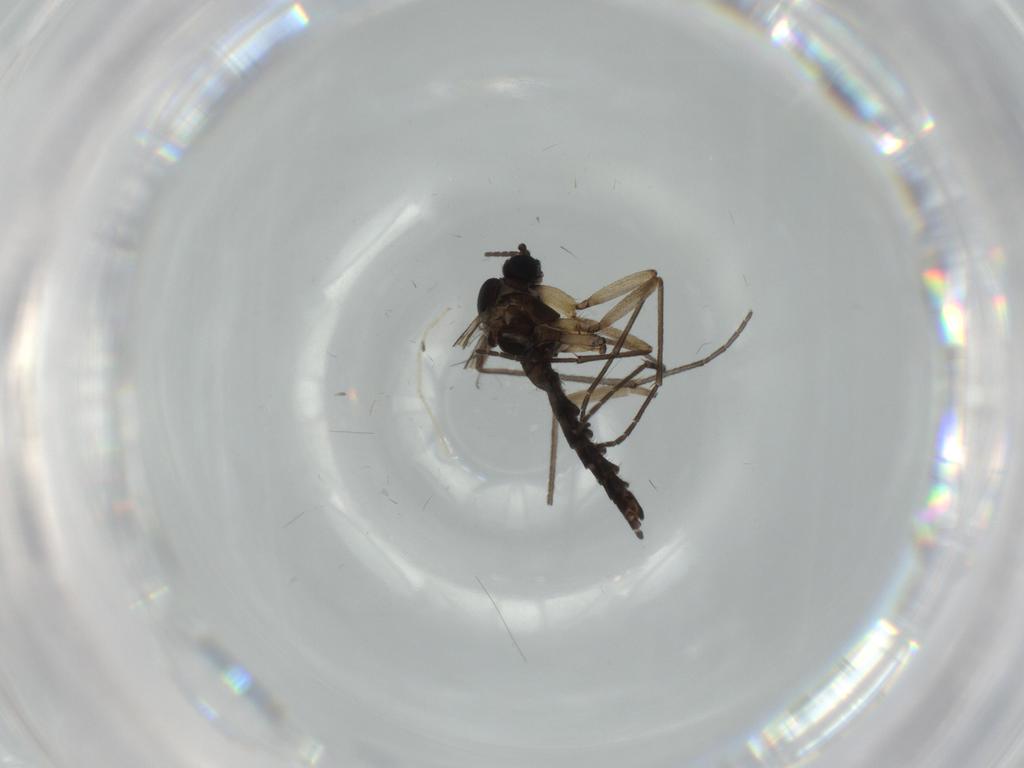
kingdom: Animalia
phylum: Arthropoda
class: Insecta
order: Diptera
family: Sciaridae
